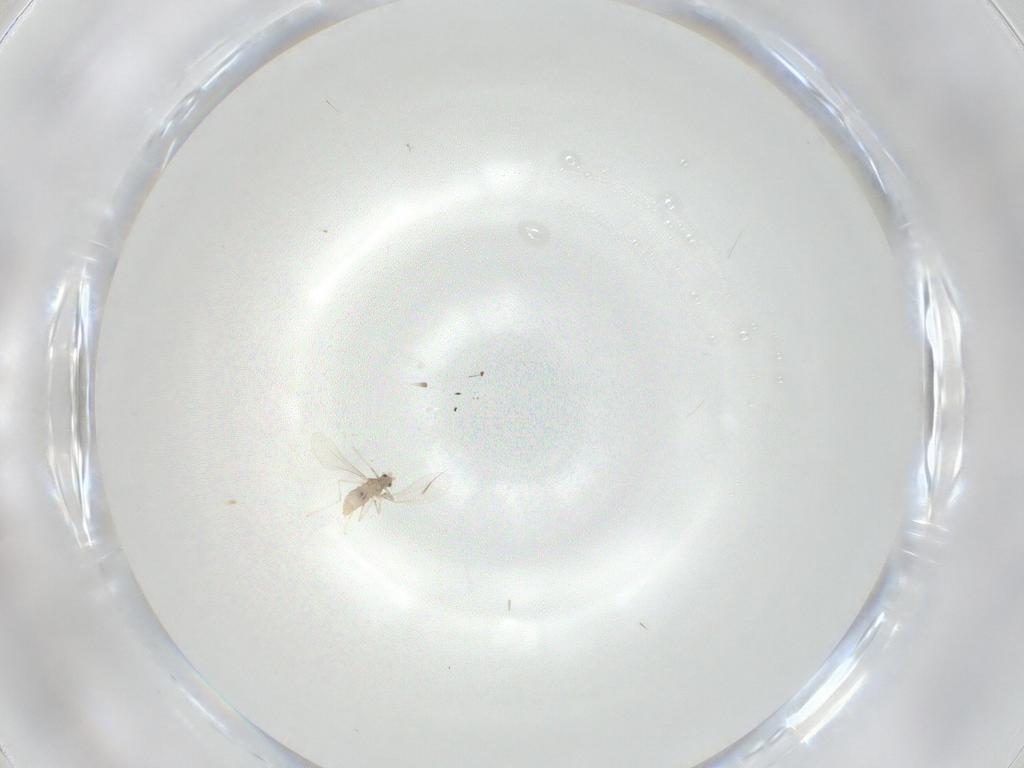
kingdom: Animalia
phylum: Arthropoda
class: Insecta
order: Diptera
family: Cecidomyiidae
